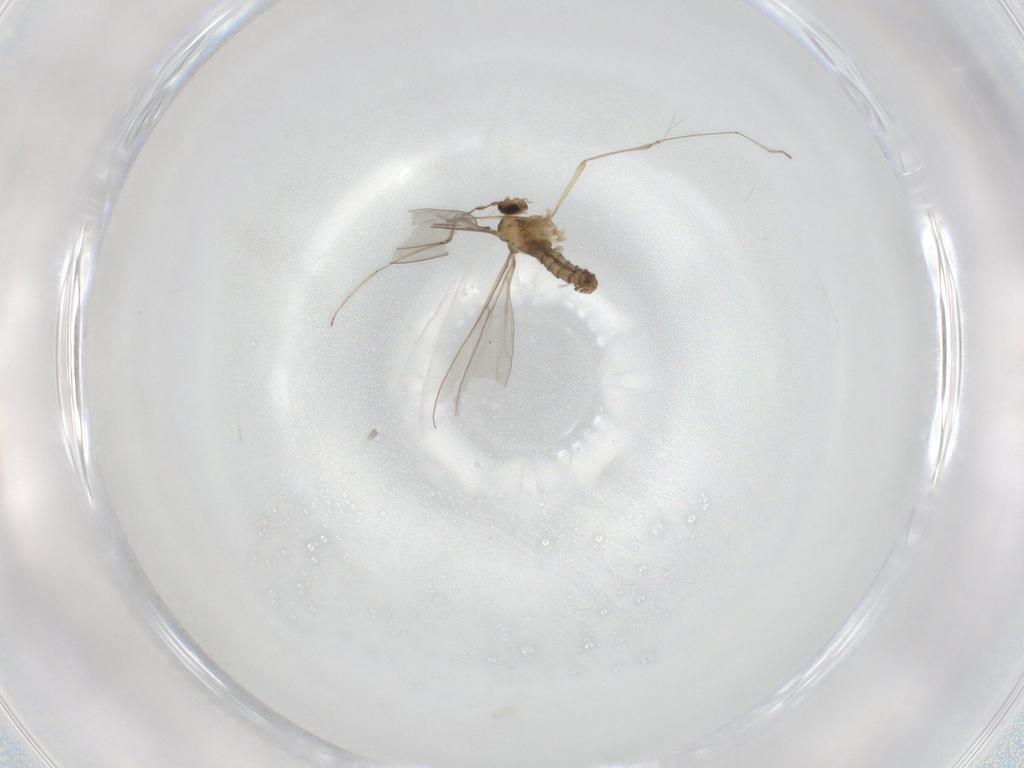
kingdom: Animalia
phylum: Arthropoda
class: Insecta
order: Diptera
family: Cecidomyiidae
